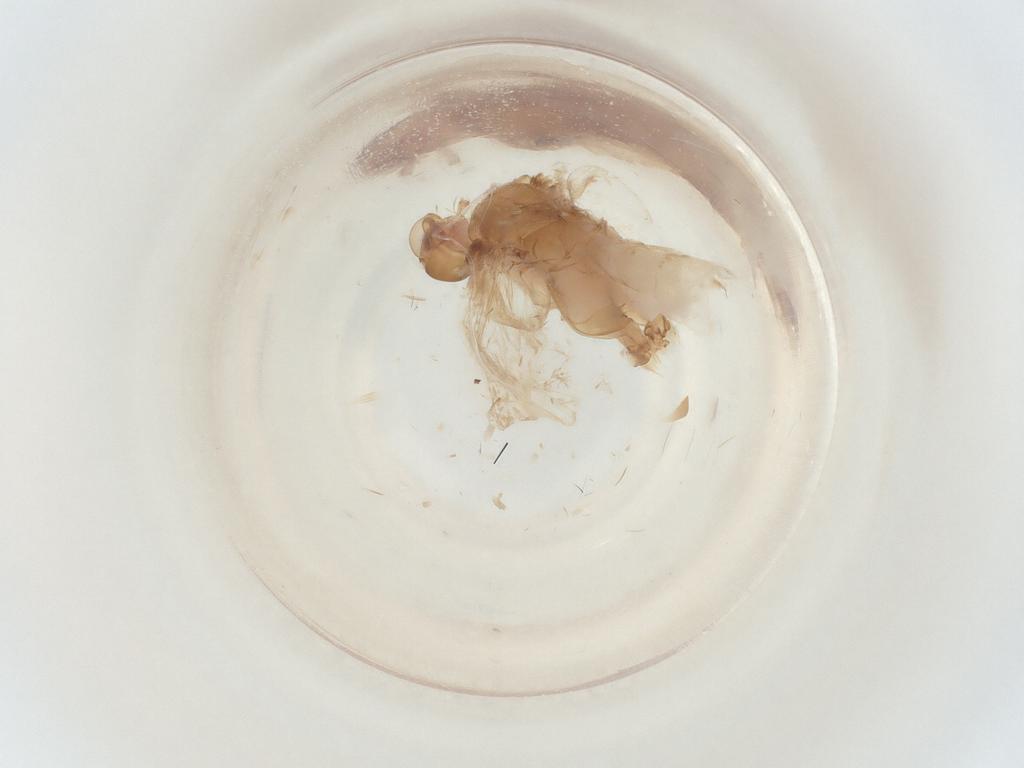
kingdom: Animalia
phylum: Arthropoda
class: Insecta
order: Lepidoptera
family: Gelechiidae
